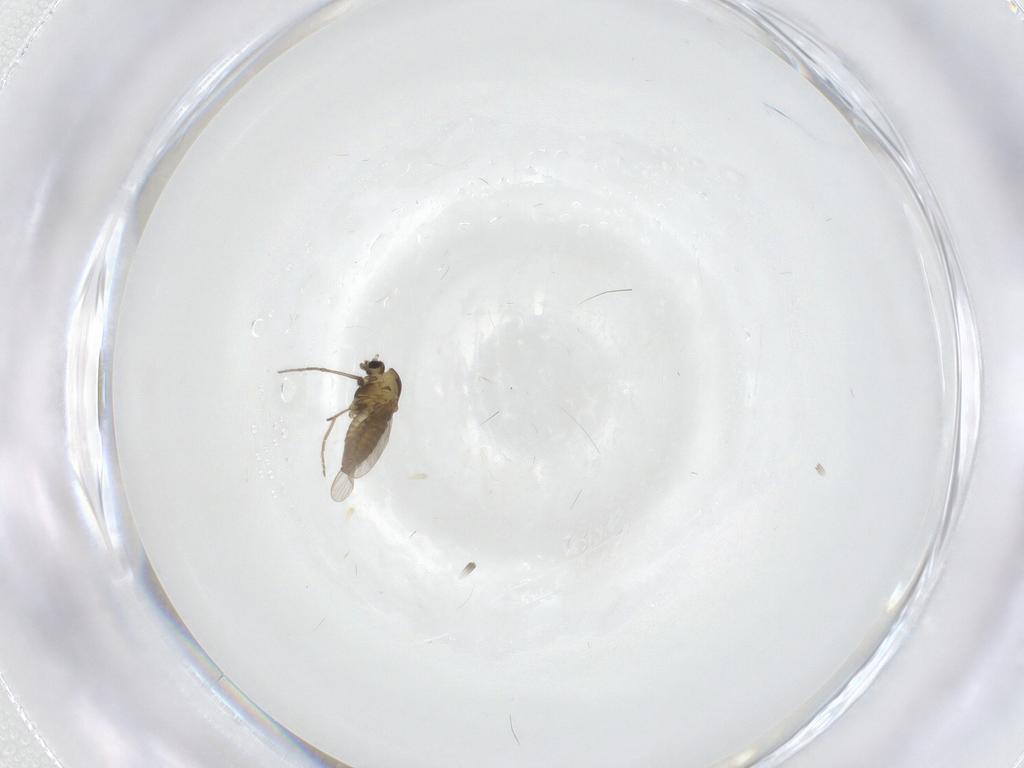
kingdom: Animalia
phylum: Arthropoda
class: Insecta
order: Diptera
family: Chironomidae
